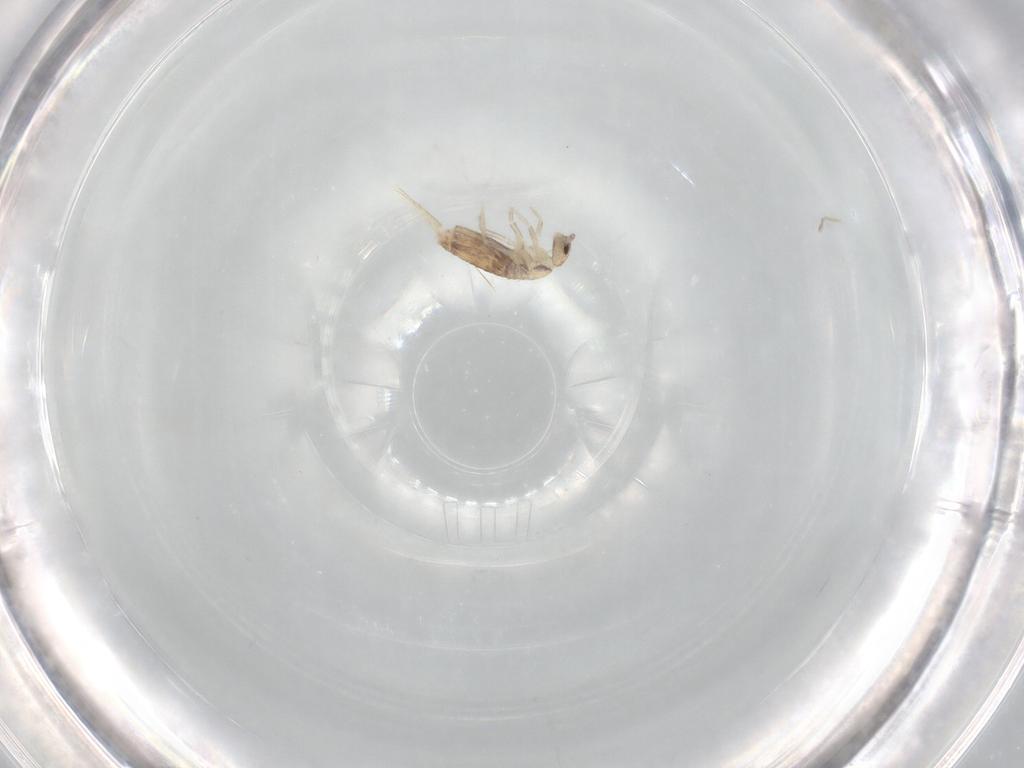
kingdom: Animalia
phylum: Arthropoda
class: Collembola
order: Poduromorpha
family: Hypogastruridae
